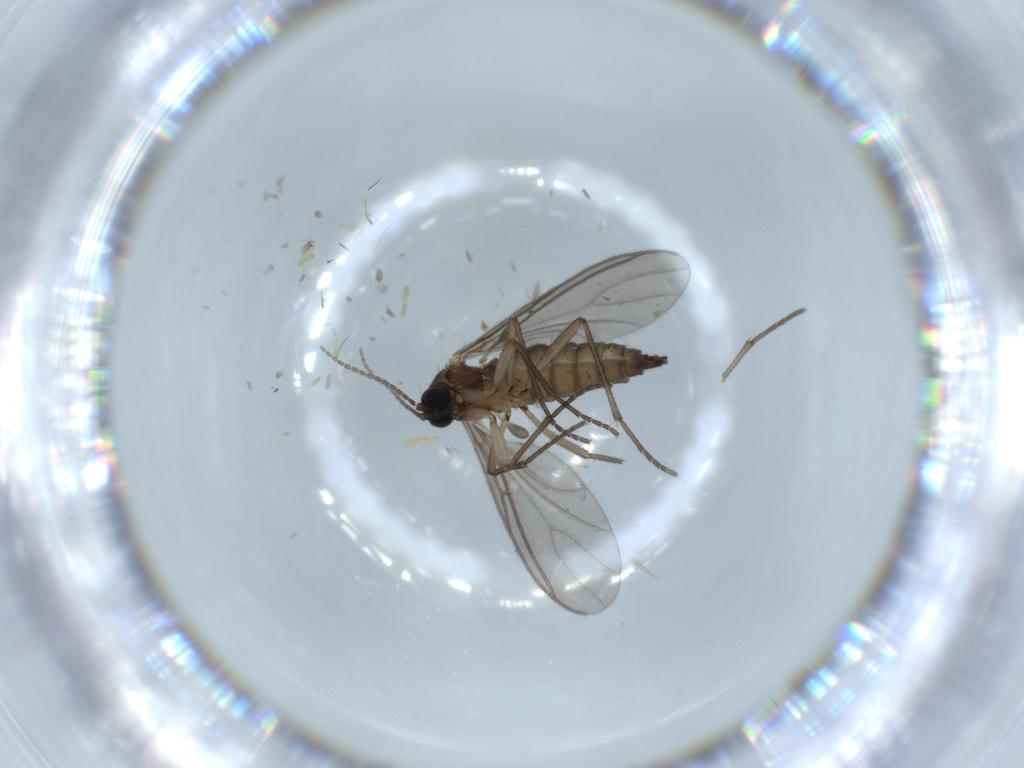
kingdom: Animalia
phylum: Arthropoda
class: Insecta
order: Diptera
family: Sciaridae
